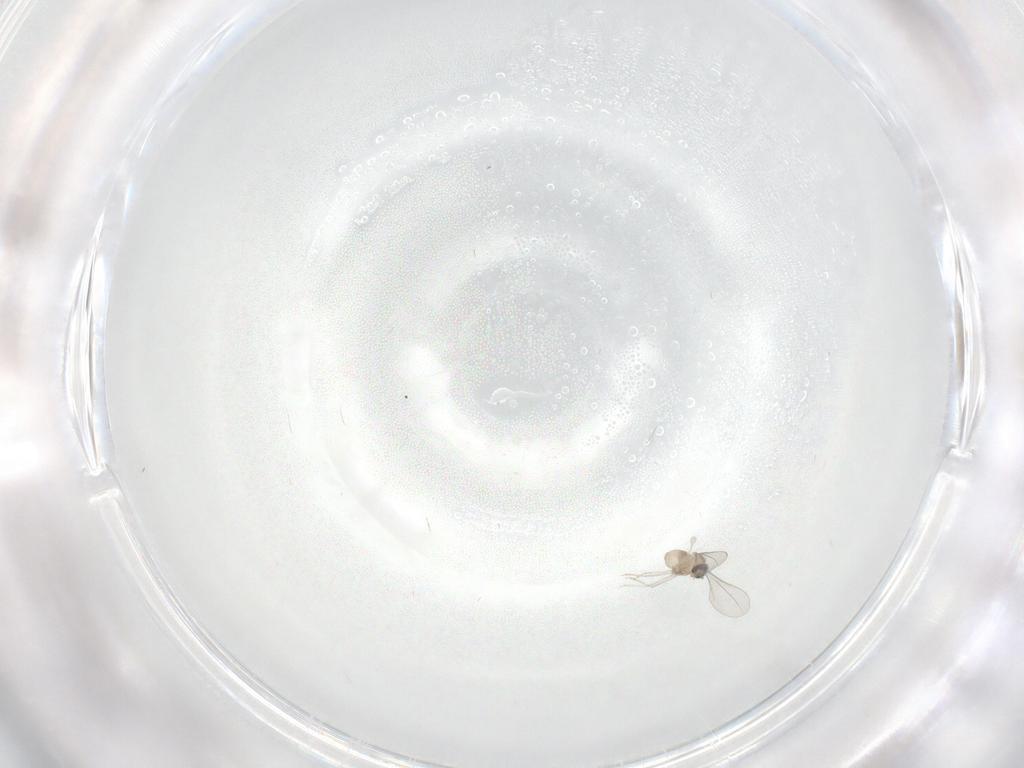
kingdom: Animalia
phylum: Arthropoda
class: Insecta
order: Diptera
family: Cecidomyiidae
